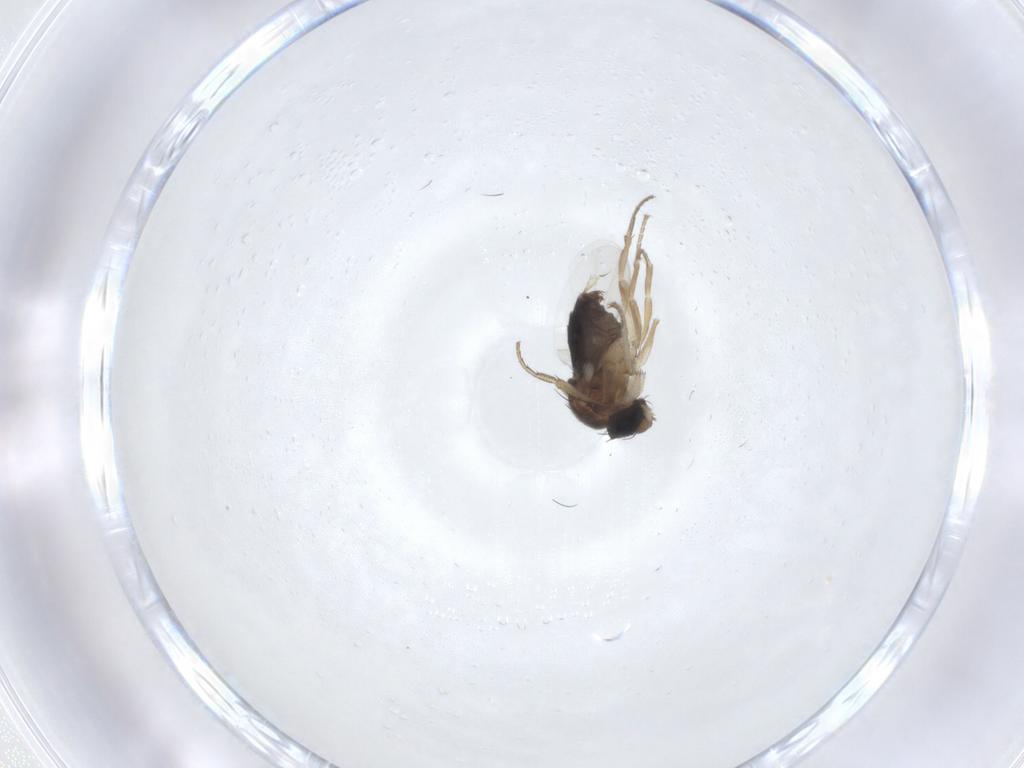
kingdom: Animalia
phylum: Arthropoda
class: Insecta
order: Diptera
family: Phoridae
